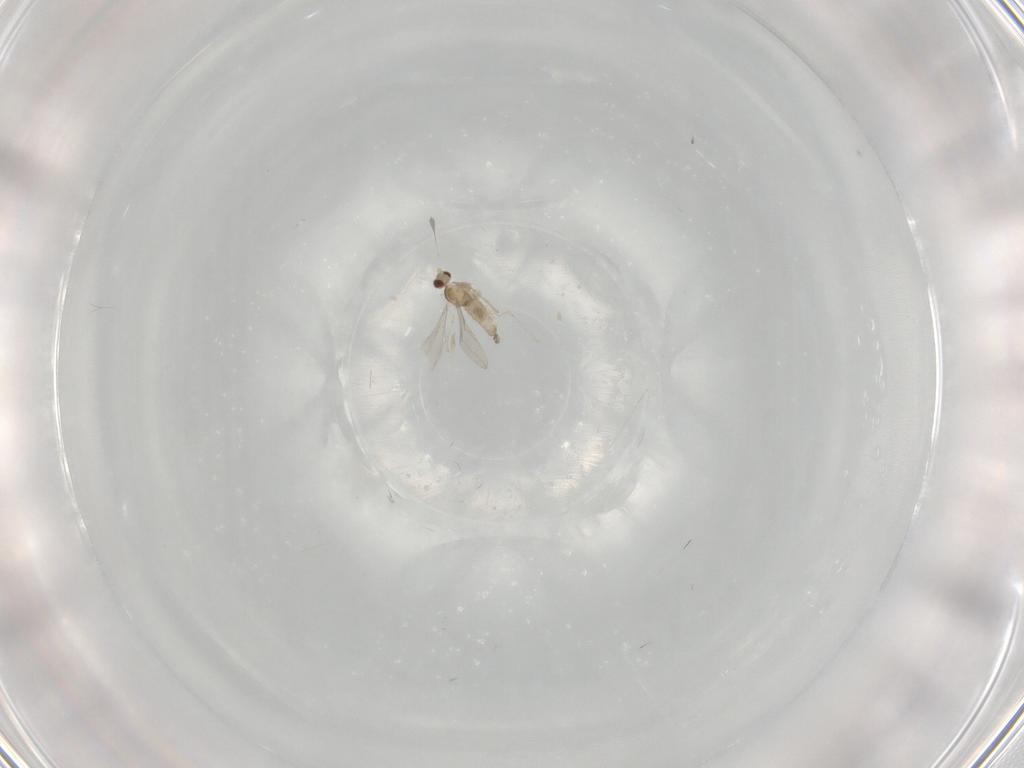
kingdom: Animalia
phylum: Arthropoda
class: Insecta
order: Diptera
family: Cecidomyiidae
